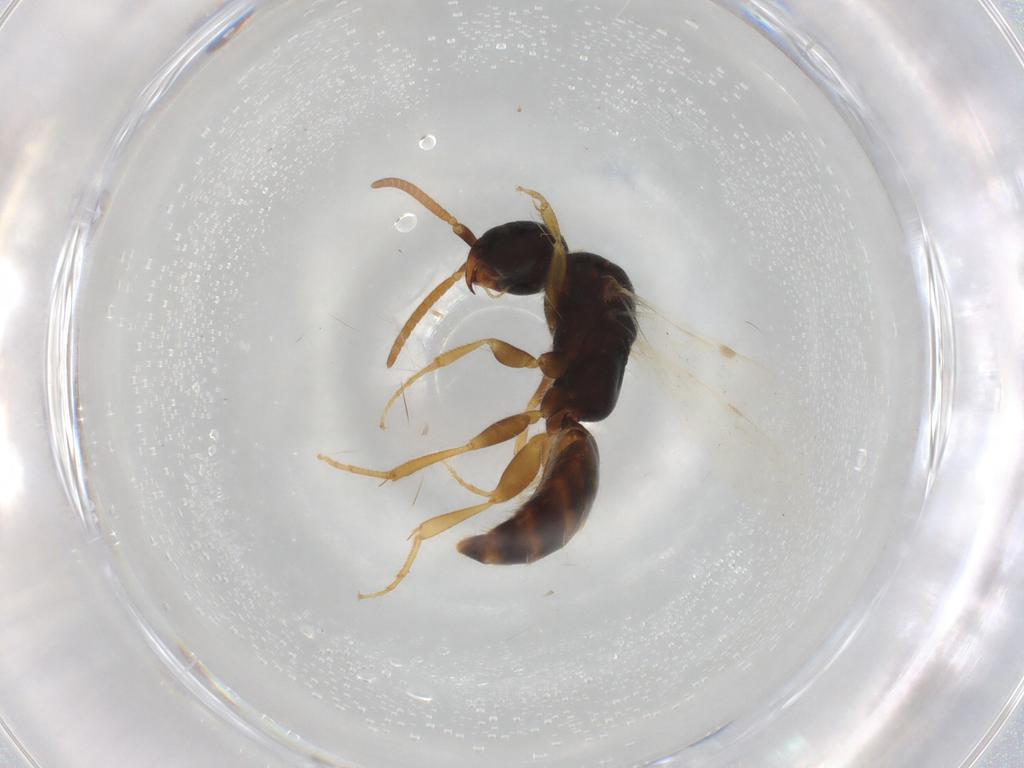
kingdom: Animalia
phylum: Arthropoda
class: Insecta
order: Hymenoptera
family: Bethylidae
